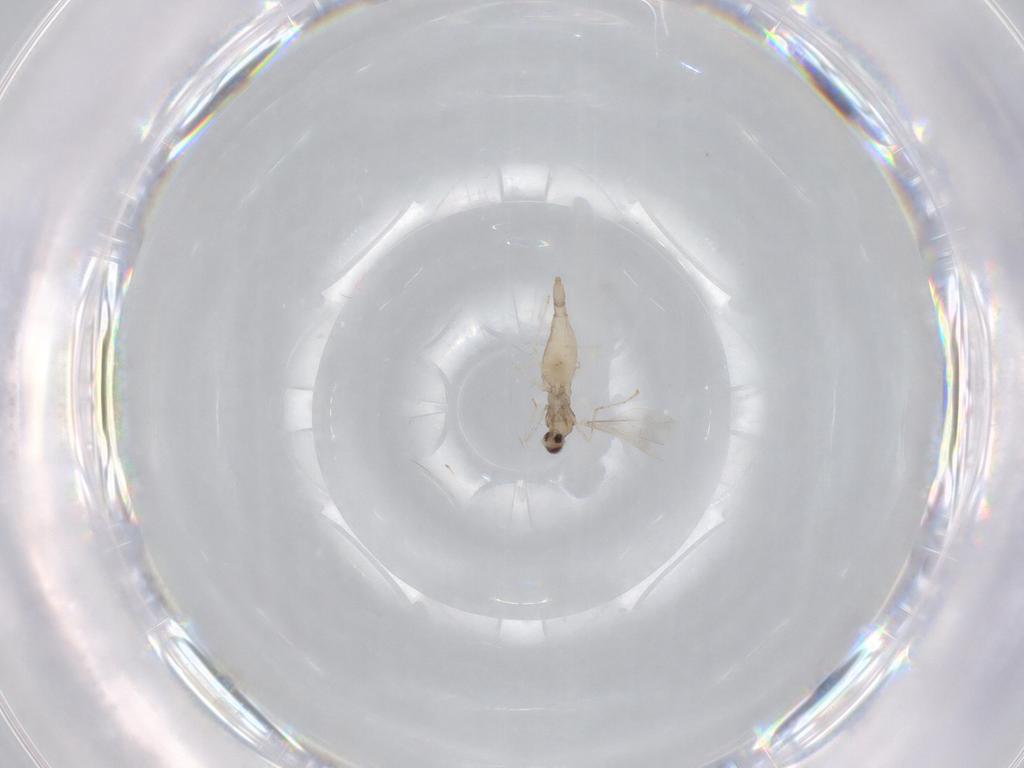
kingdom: Animalia
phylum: Arthropoda
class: Insecta
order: Diptera
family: Cecidomyiidae
